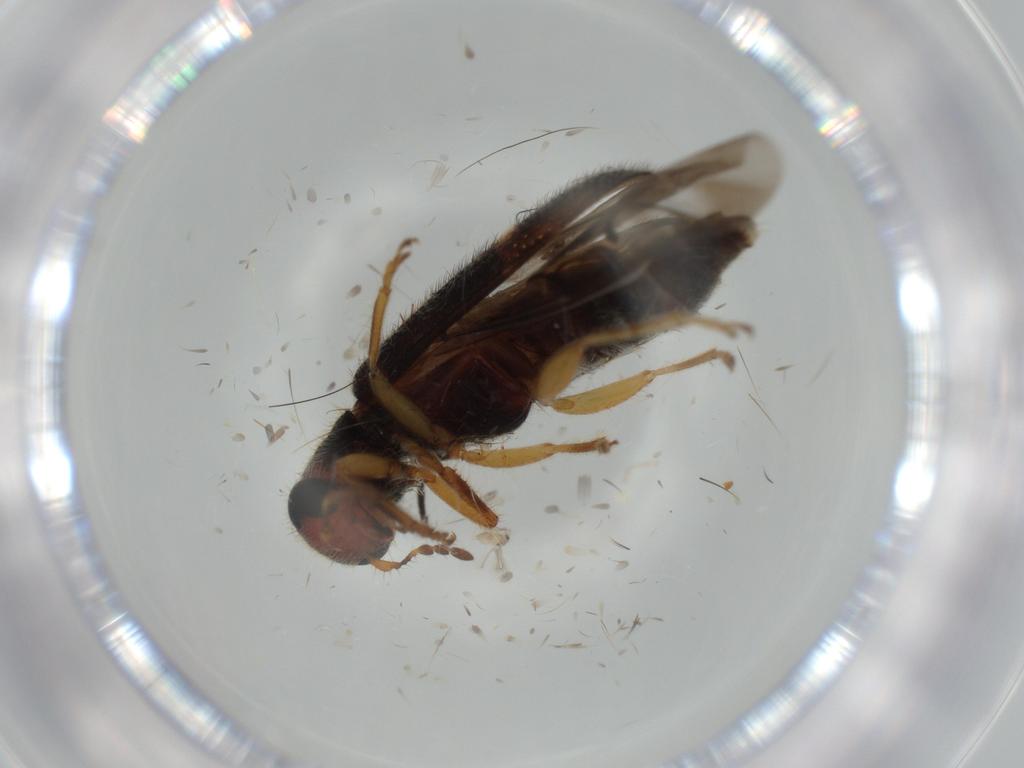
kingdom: Animalia
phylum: Arthropoda
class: Insecta
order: Coleoptera
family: Cleridae
